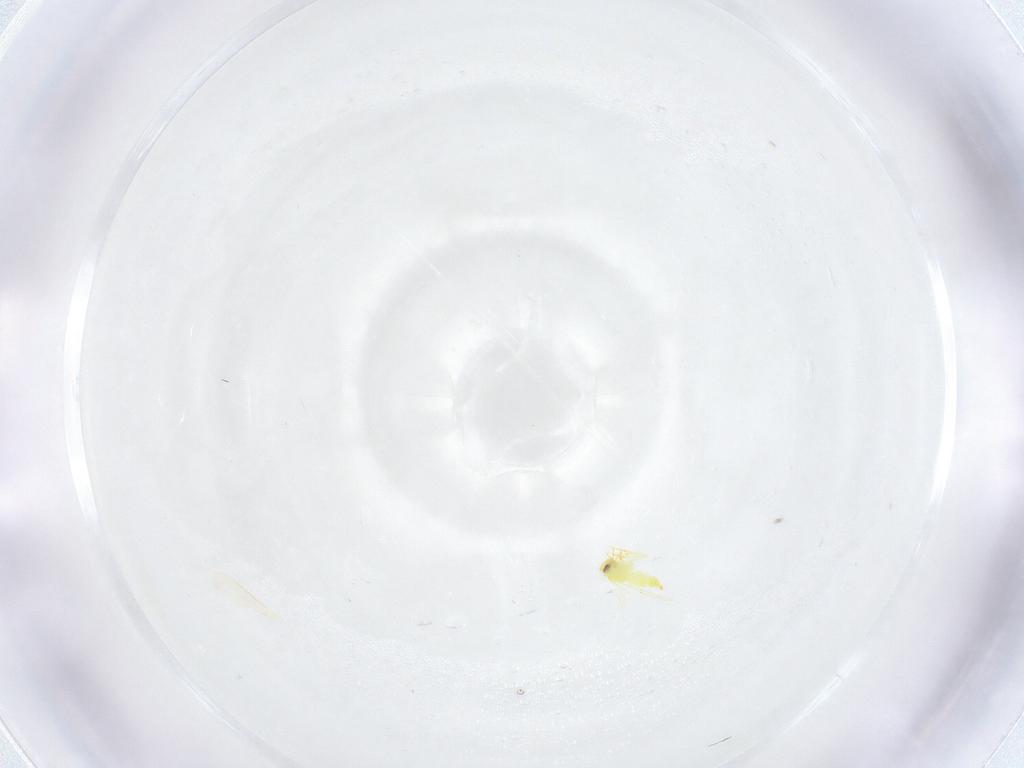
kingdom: Animalia
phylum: Arthropoda
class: Insecta
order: Hemiptera
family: Aleyrodidae
